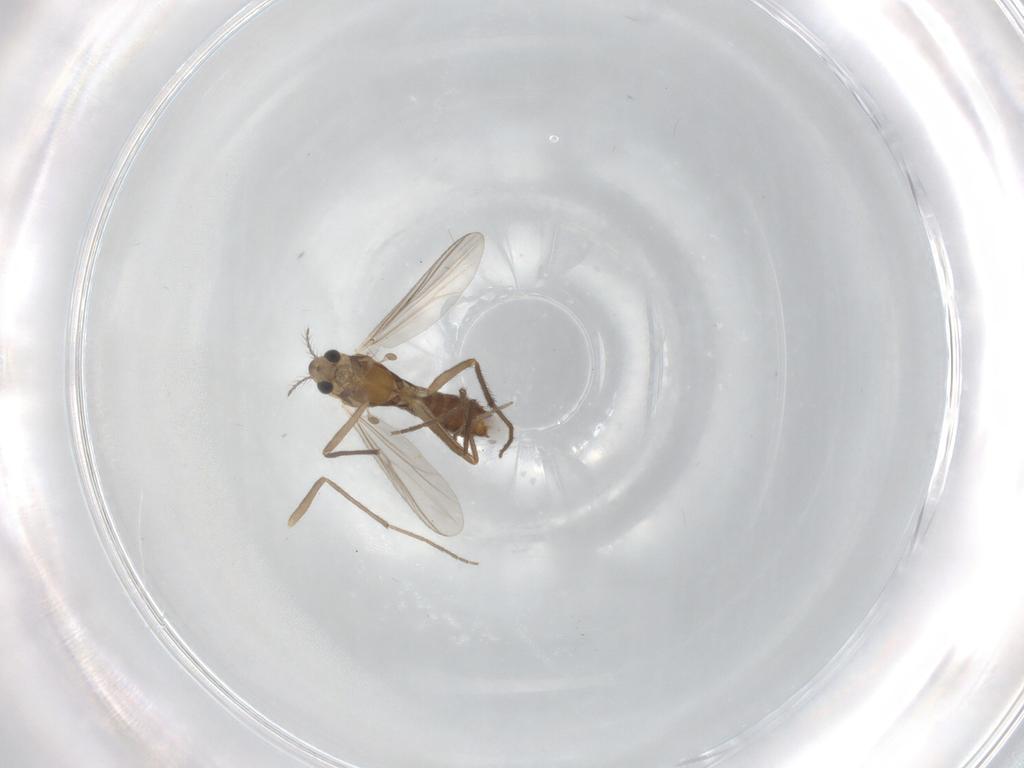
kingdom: Animalia
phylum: Arthropoda
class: Insecta
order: Diptera
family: Chironomidae
